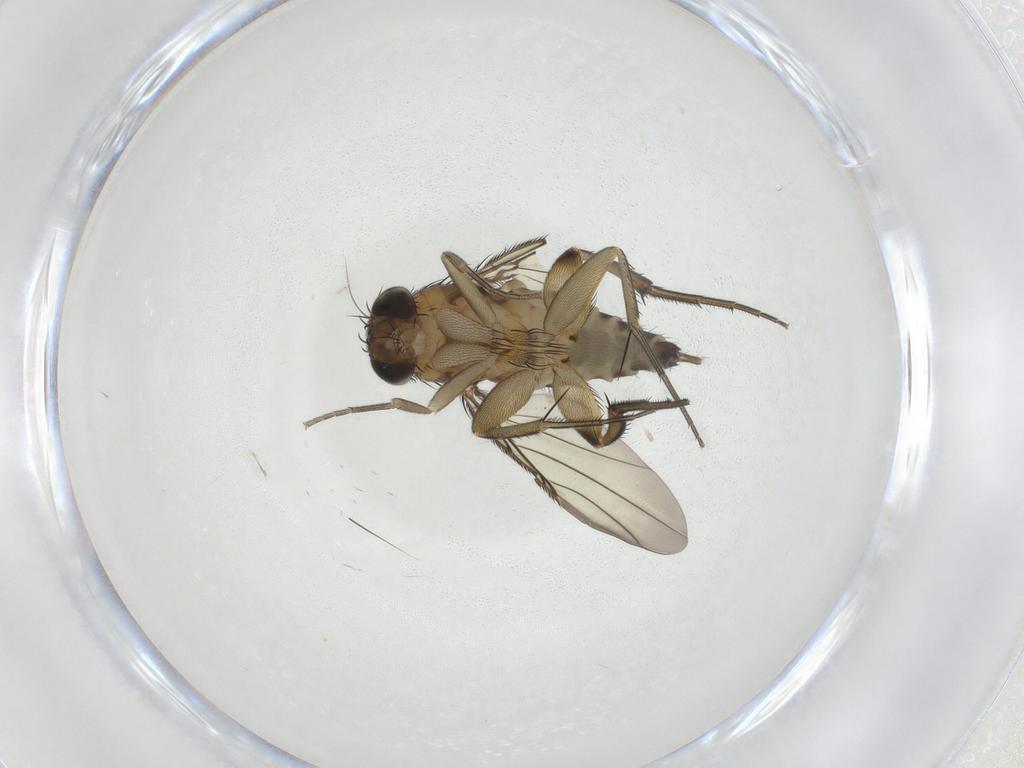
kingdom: Animalia
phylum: Arthropoda
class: Insecta
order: Diptera
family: Phoridae
